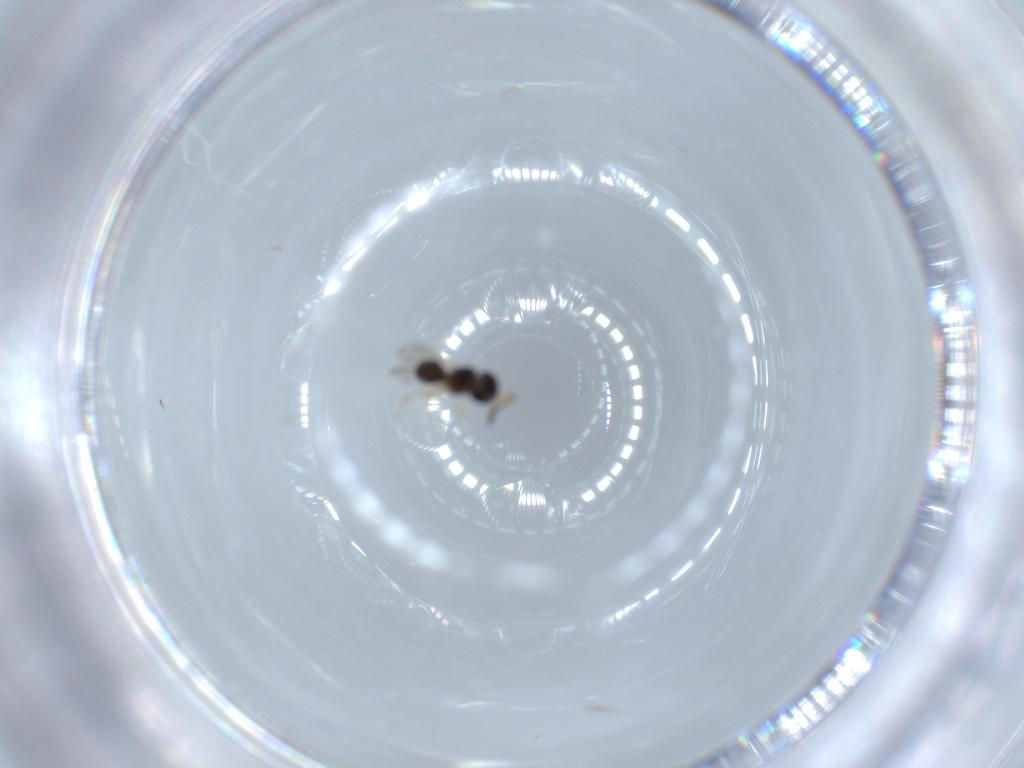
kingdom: Animalia
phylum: Arthropoda
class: Insecta
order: Hymenoptera
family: Scelionidae
